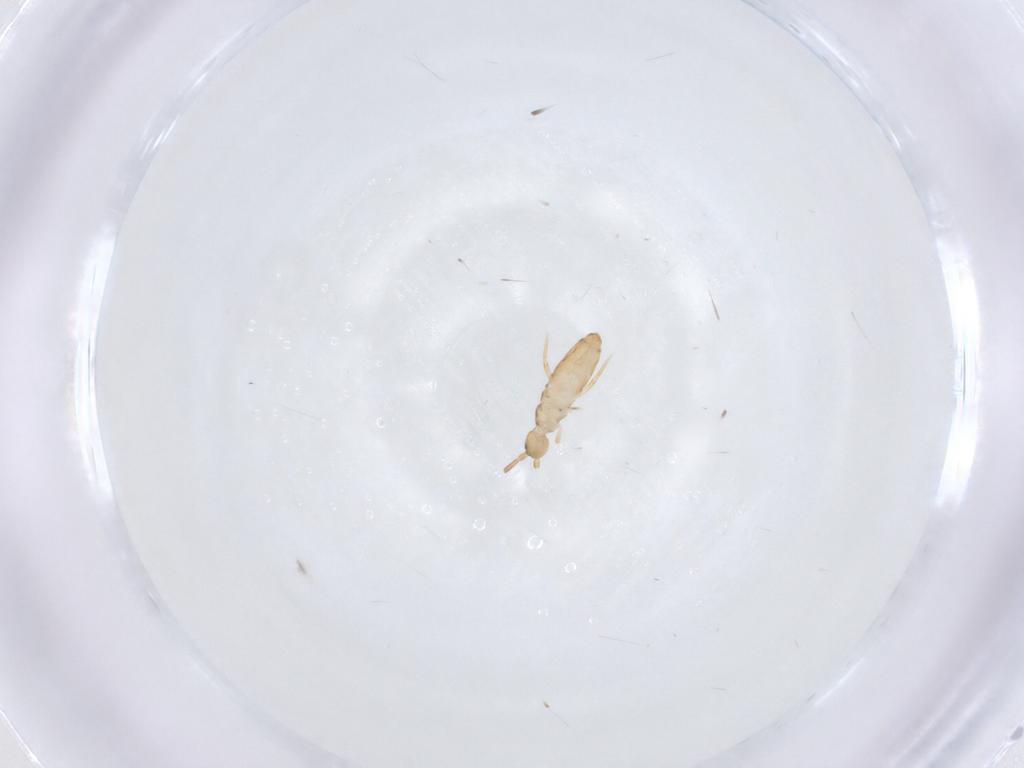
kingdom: Animalia
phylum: Arthropoda
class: Collembola
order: Entomobryomorpha
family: Entomobryidae
